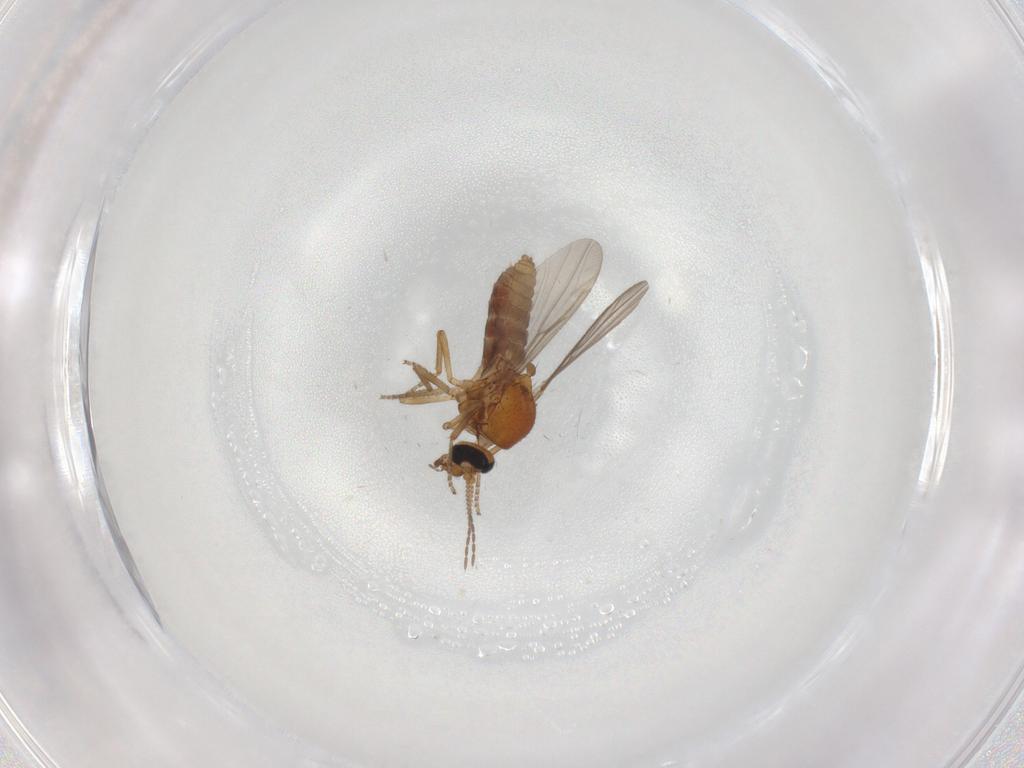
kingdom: Animalia
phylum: Arthropoda
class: Insecta
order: Diptera
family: Ceratopogonidae
